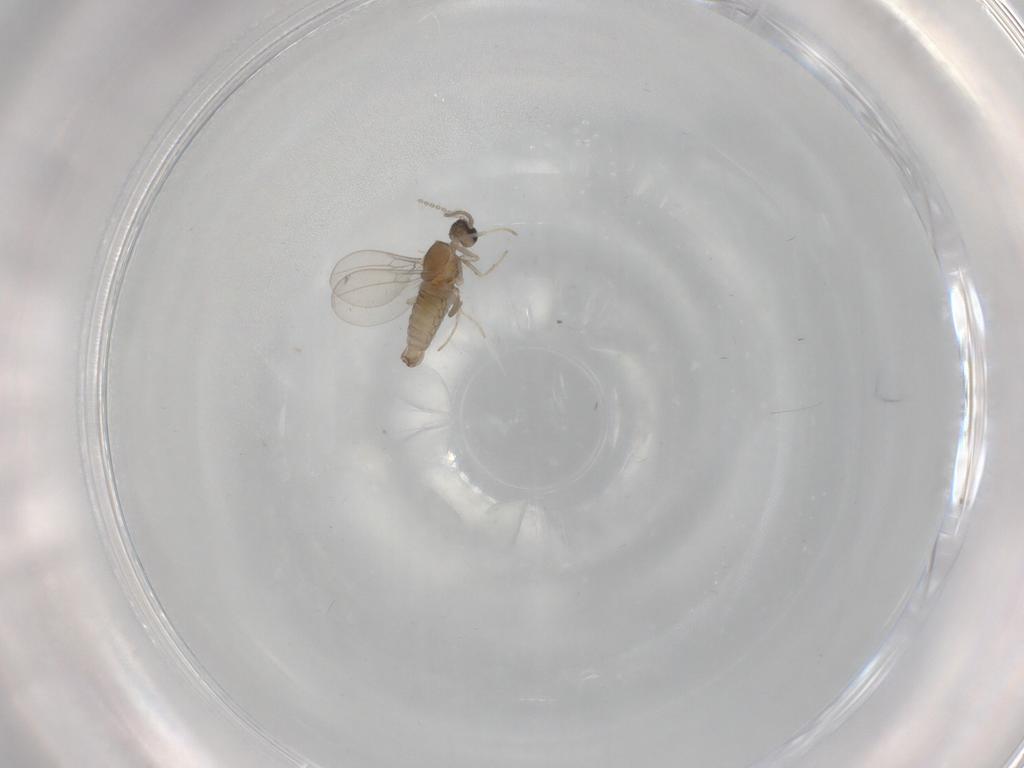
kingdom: Animalia
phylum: Arthropoda
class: Insecta
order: Diptera
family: Cecidomyiidae
